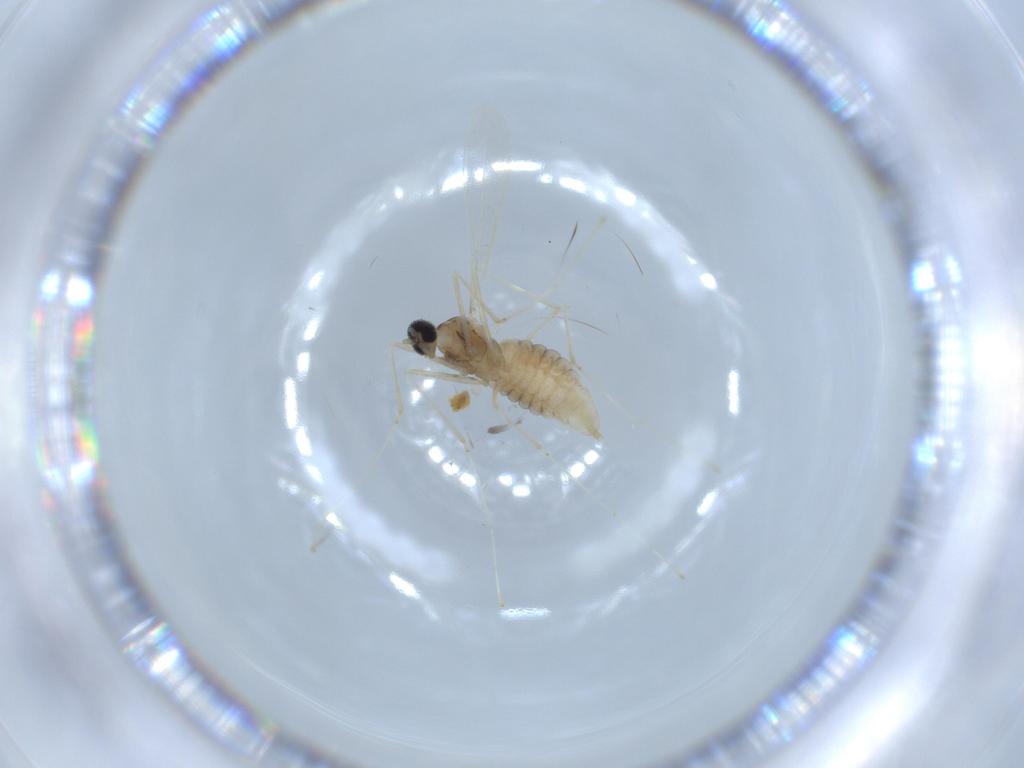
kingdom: Animalia
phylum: Arthropoda
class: Insecta
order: Diptera
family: Cecidomyiidae
